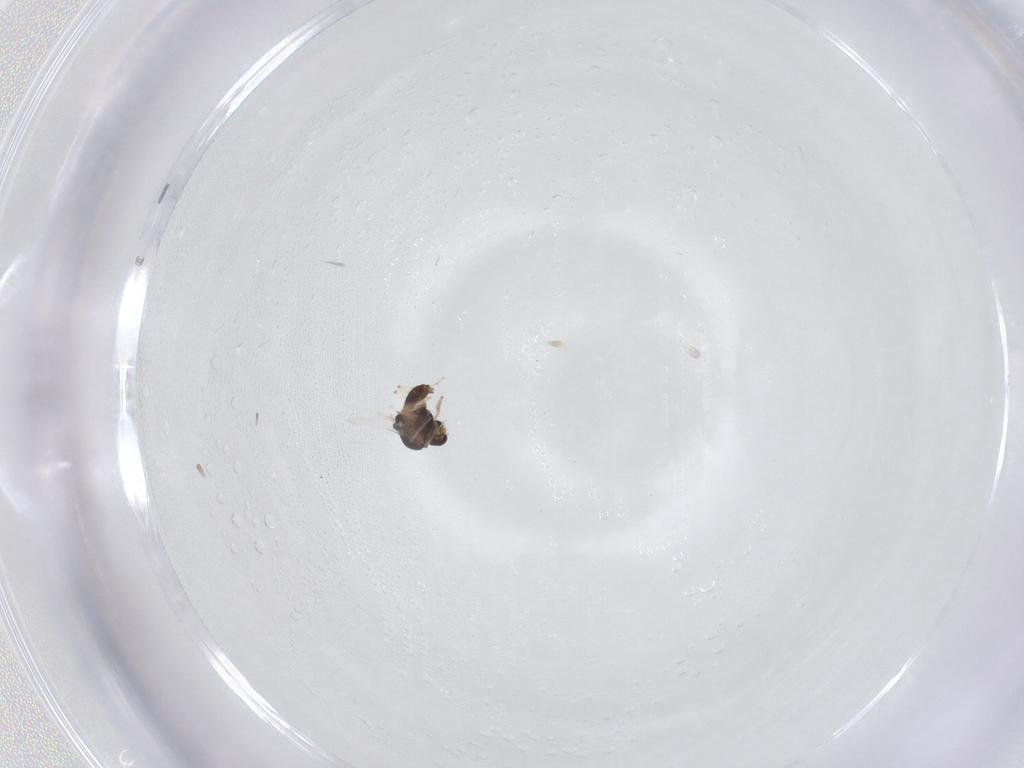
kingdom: Animalia
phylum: Arthropoda
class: Insecta
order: Diptera
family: Chironomidae
